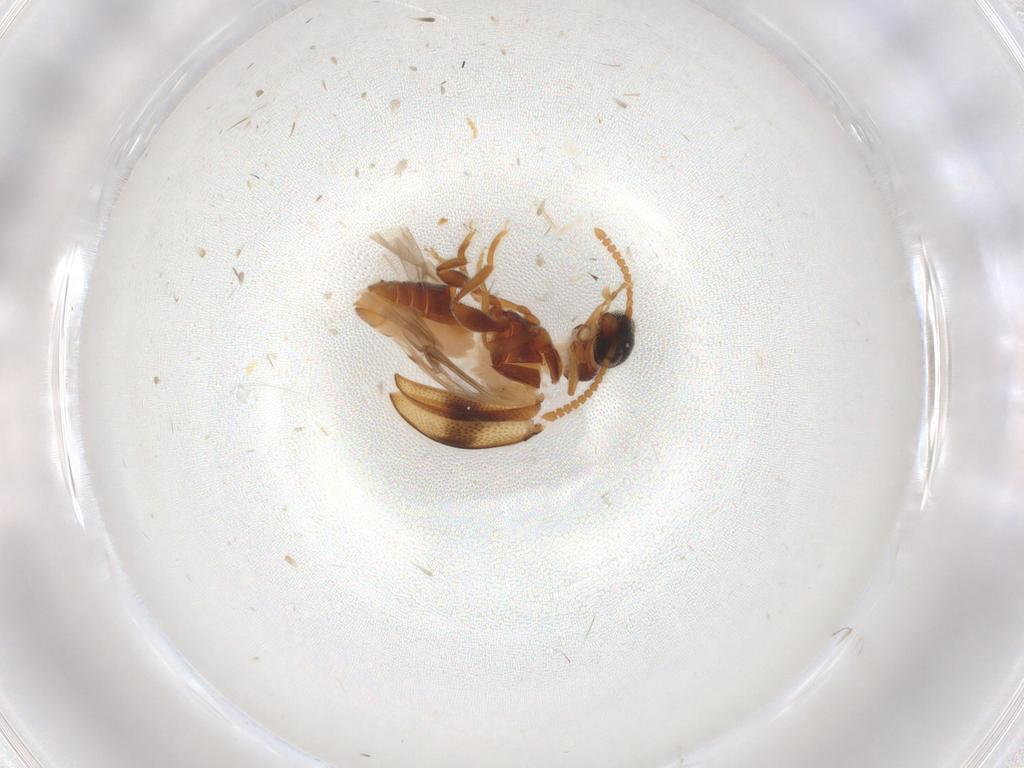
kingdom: Animalia
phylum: Arthropoda
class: Insecta
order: Coleoptera
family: Aderidae
